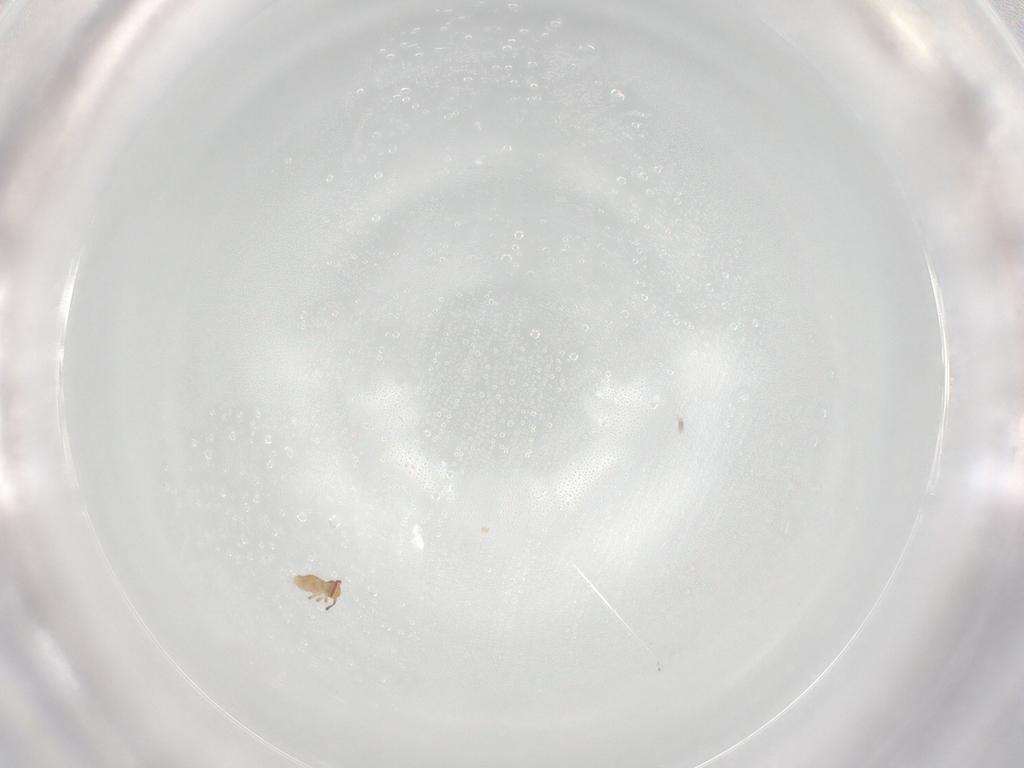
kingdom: Animalia
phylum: Arthropoda
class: Collembola
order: Symphypleona
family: Bourletiellidae
